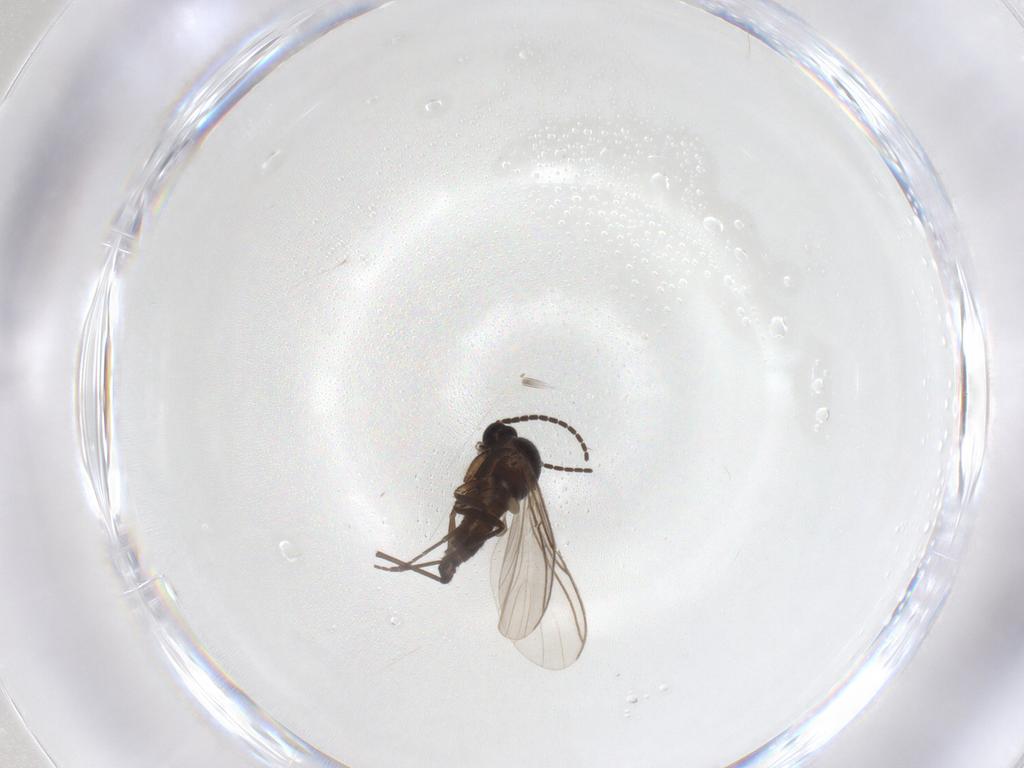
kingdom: Animalia
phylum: Arthropoda
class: Insecta
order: Diptera
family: Sciaridae
